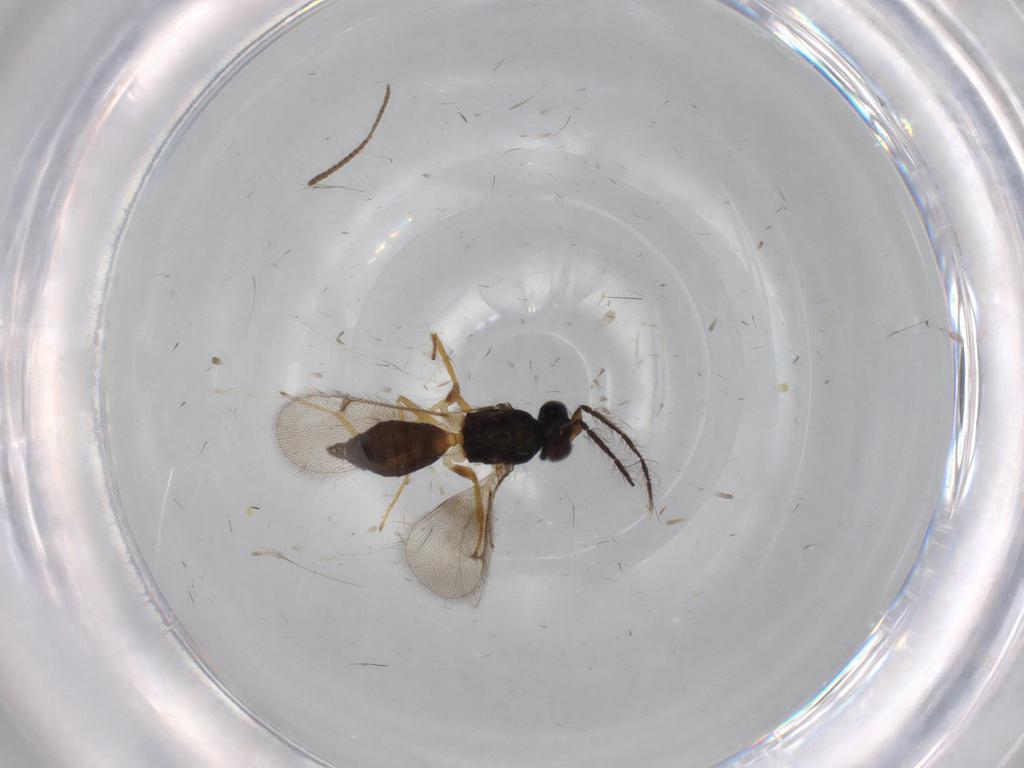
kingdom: Animalia
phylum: Arthropoda
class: Insecta
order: Hymenoptera
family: Eulophidae
